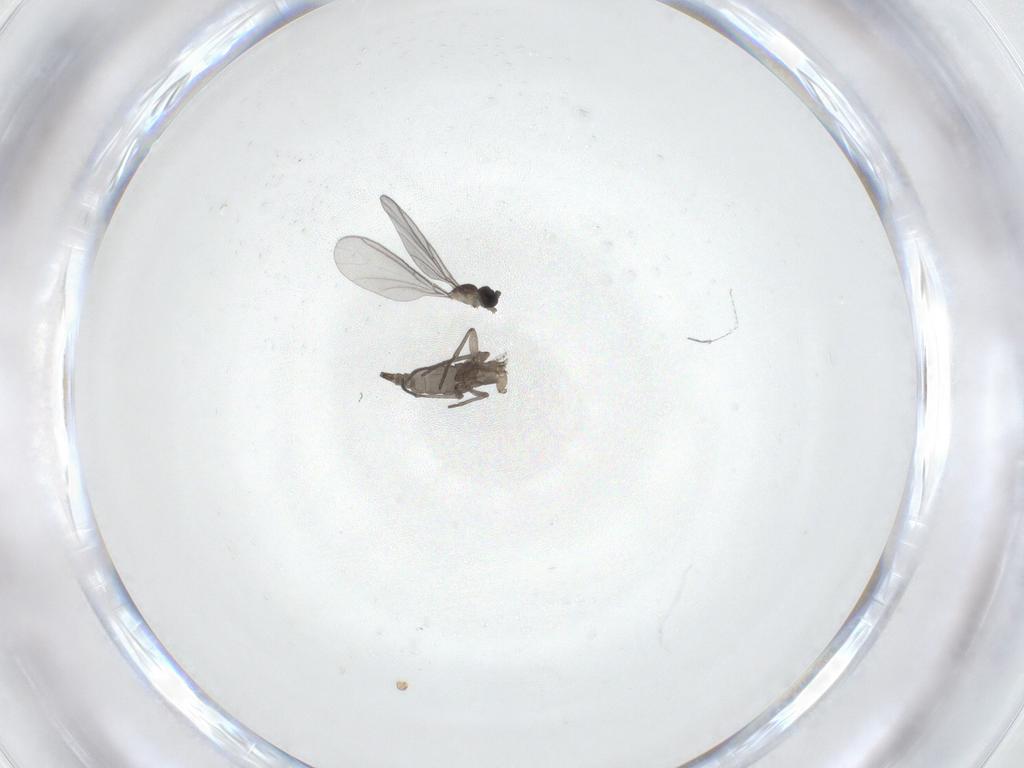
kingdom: Animalia
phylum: Arthropoda
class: Insecta
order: Diptera
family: Sciaridae
